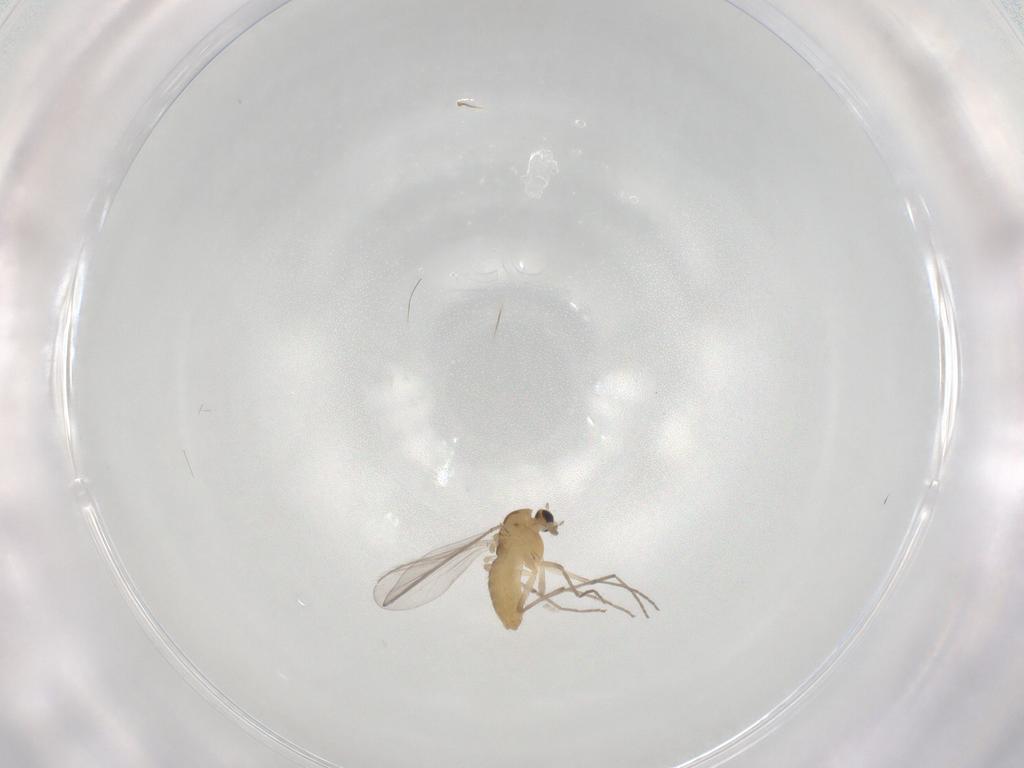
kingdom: Animalia
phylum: Arthropoda
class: Insecta
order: Diptera
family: Chironomidae
